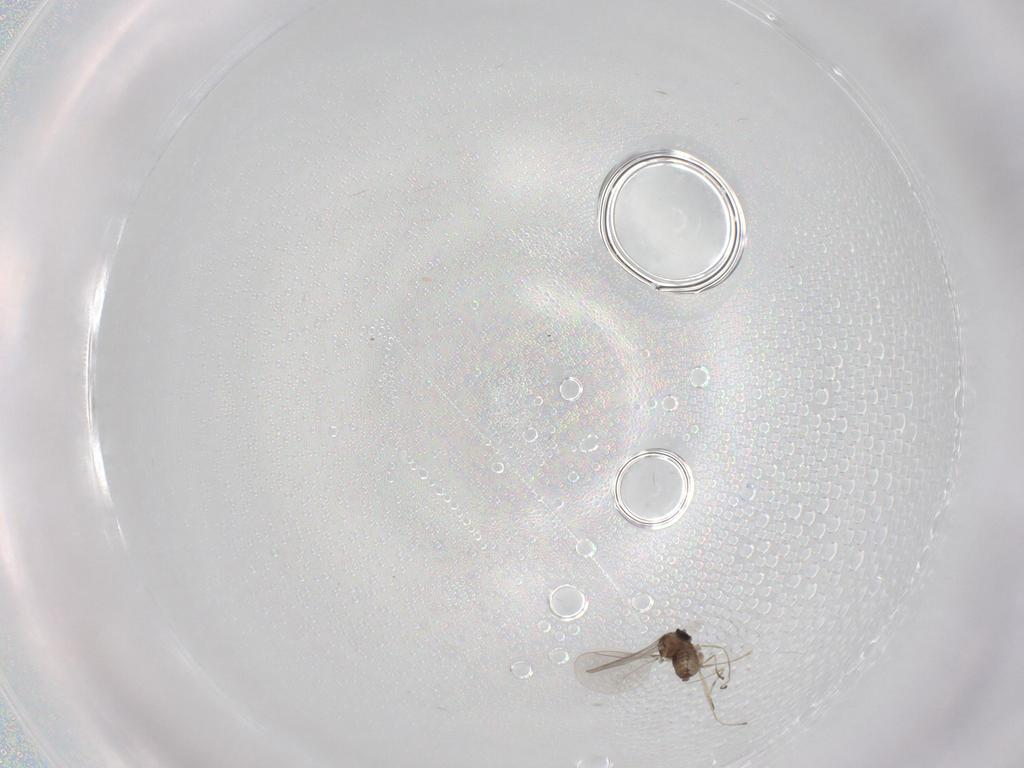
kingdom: Animalia
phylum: Arthropoda
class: Insecta
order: Diptera
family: Cecidomyiidae
